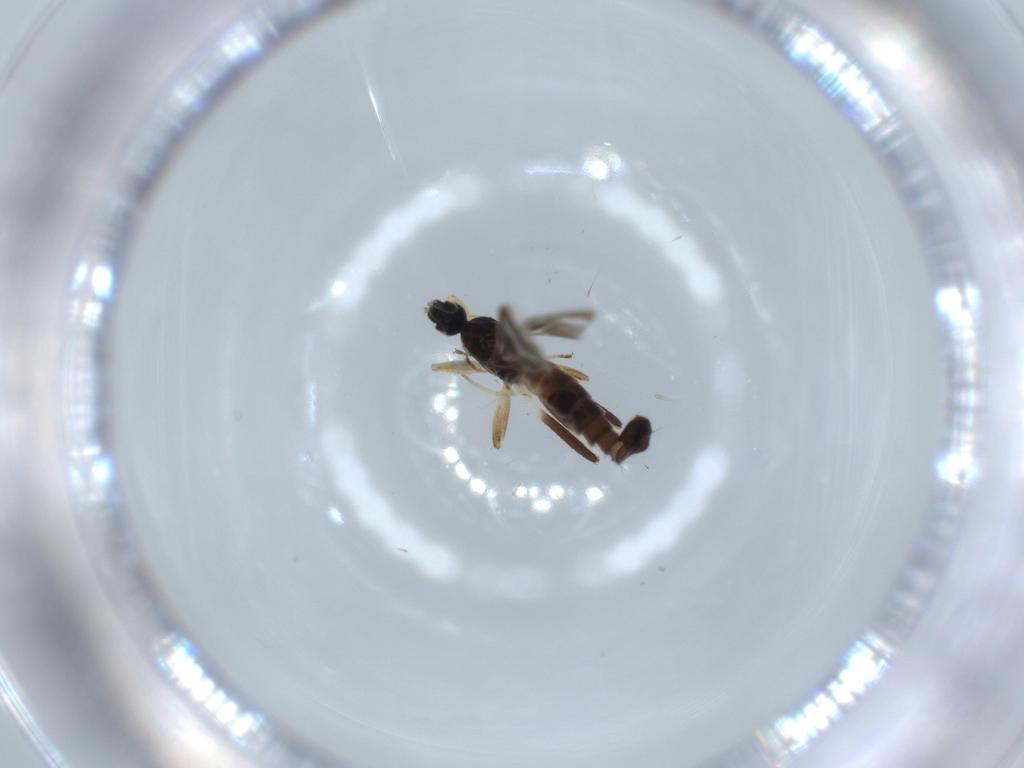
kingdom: Animalia
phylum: Arthropoda
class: Insecta
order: Diptera
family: Hybotidae
